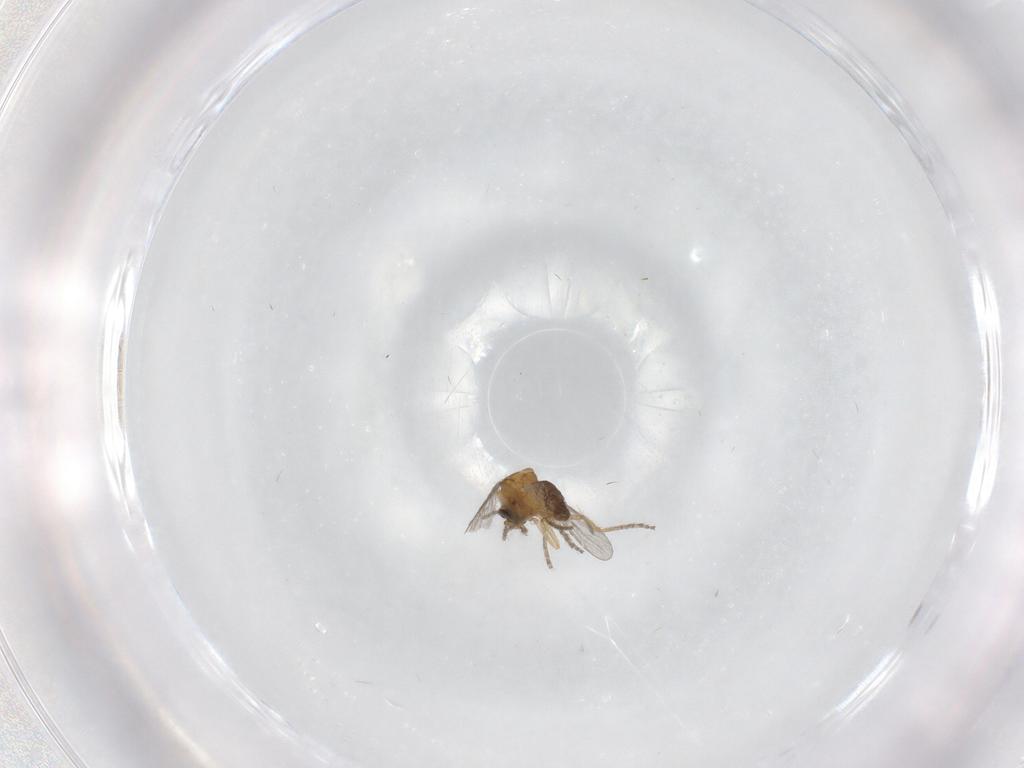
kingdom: Animalia
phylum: Arthropoda
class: Insecta
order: Diptera
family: Chironomidae
